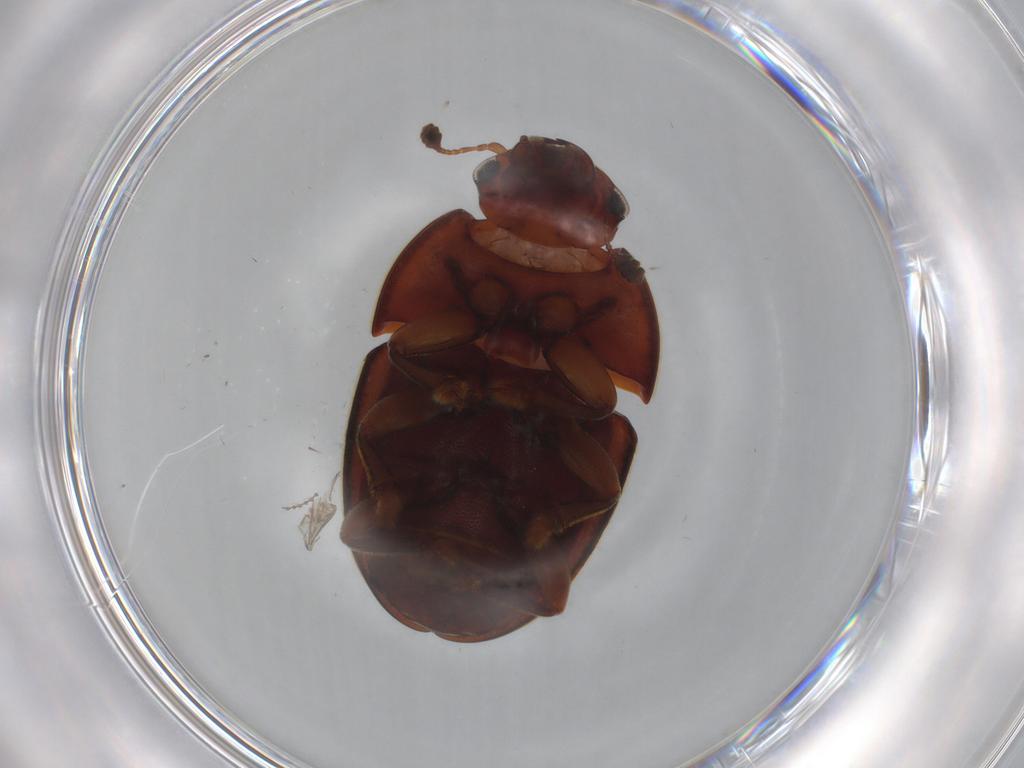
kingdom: Animalia
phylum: Arthropoda
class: Insecta
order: Coleoptera
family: Nitidulidae
